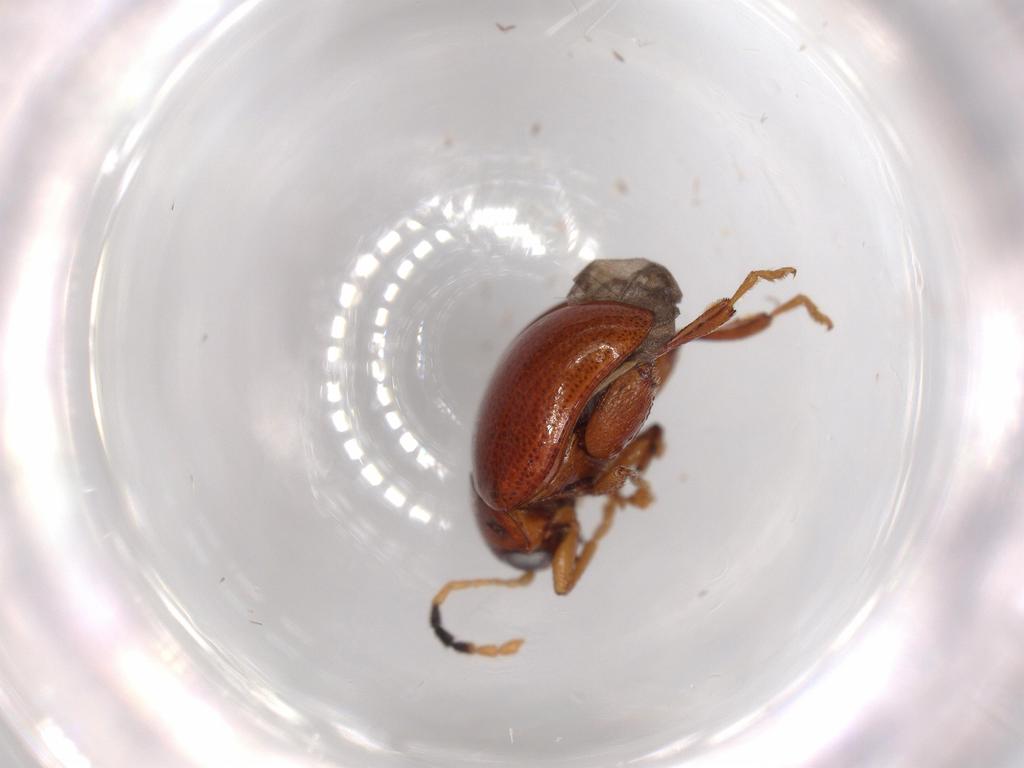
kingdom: Animalia
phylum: Arthropoda
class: Insecta
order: Coleoptera
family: Chrysomelidae
